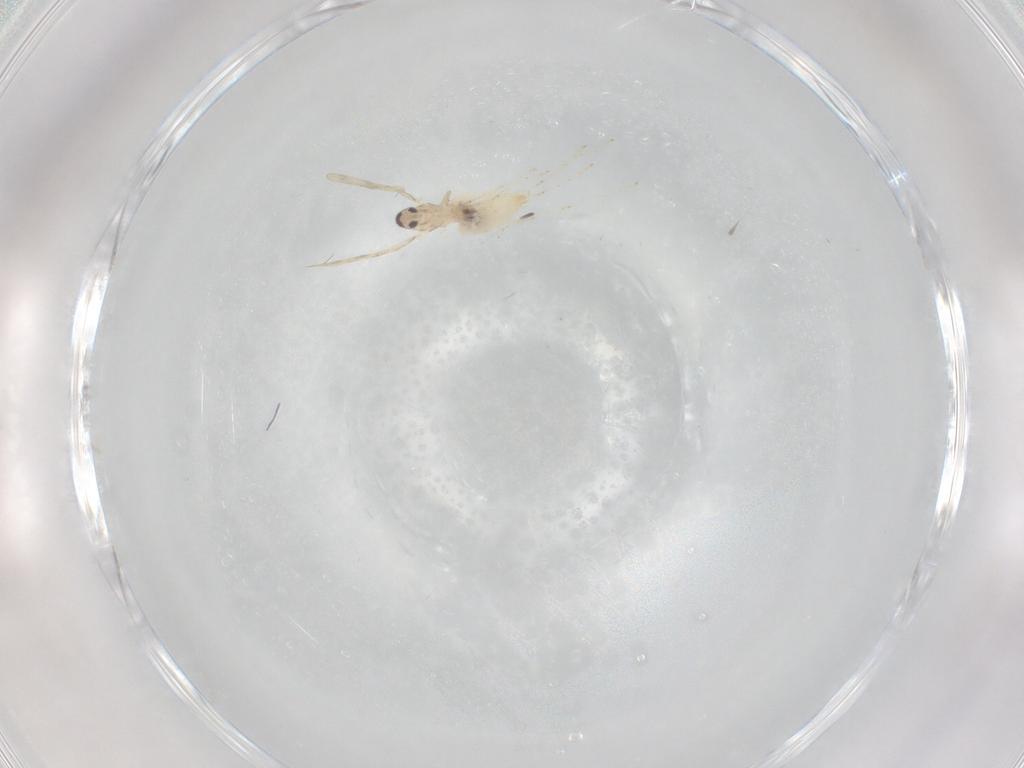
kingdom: Animalia
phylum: Arthropoda
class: Insecta
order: Diptera
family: Cecidomyiidae
